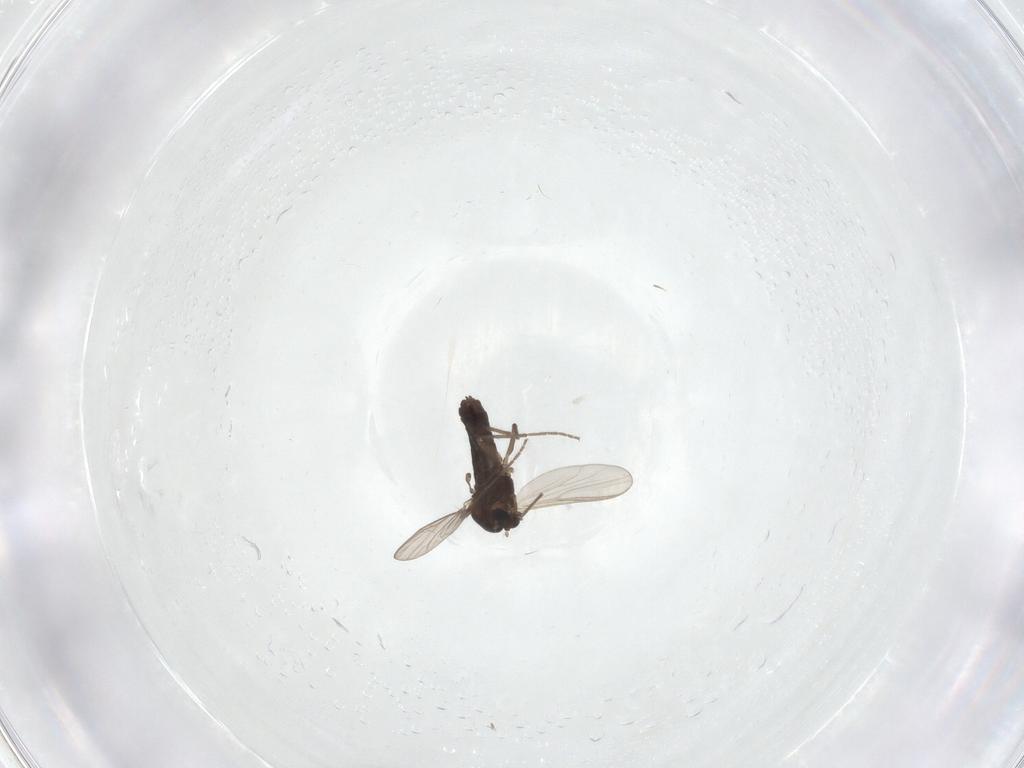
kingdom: Animalia
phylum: Arthropoda
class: Insecta
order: Diptera
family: Chironomidae
